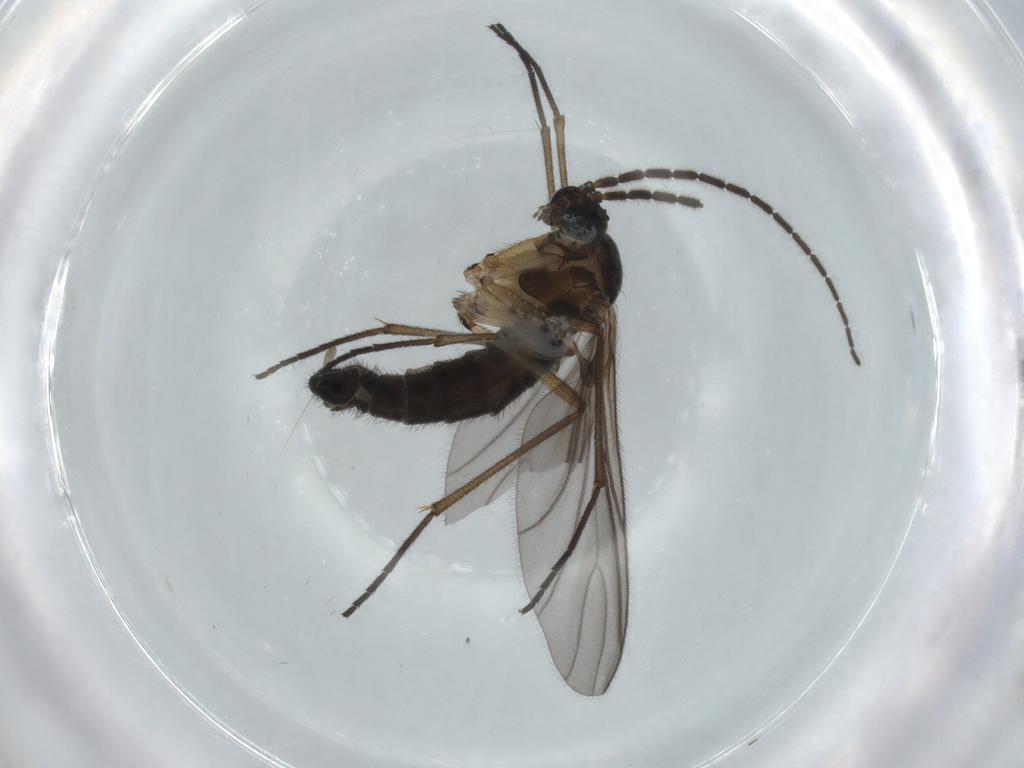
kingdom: Animalia
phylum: Arthropoda
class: Insecta
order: Diptera
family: Sciaridae
